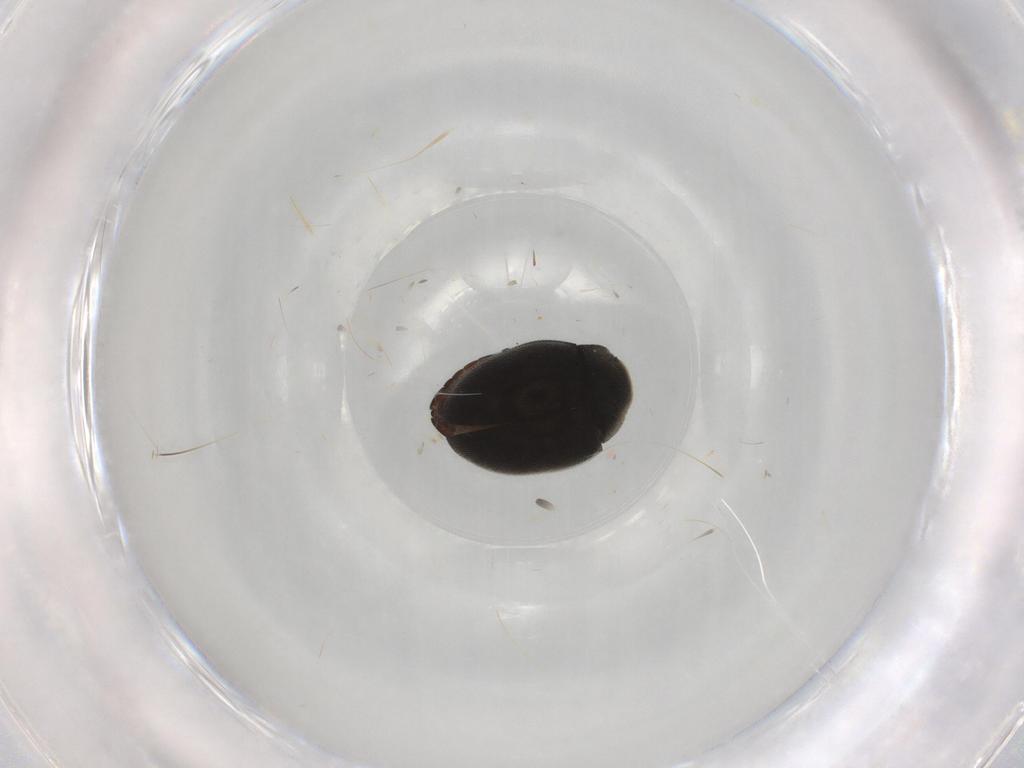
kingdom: Animalia
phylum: Arthropoda
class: Insecta
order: Coleoptera
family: Limnichidae
